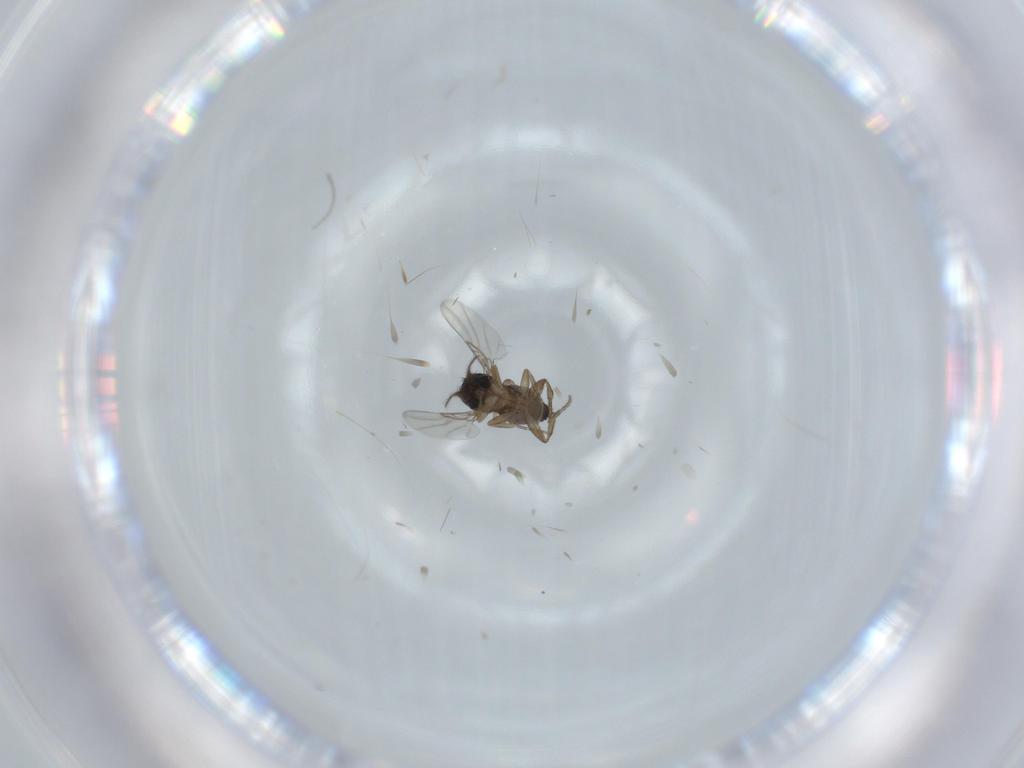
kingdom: Animalia
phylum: Arthropoda
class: Insecta
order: Diptera
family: Phoridae
